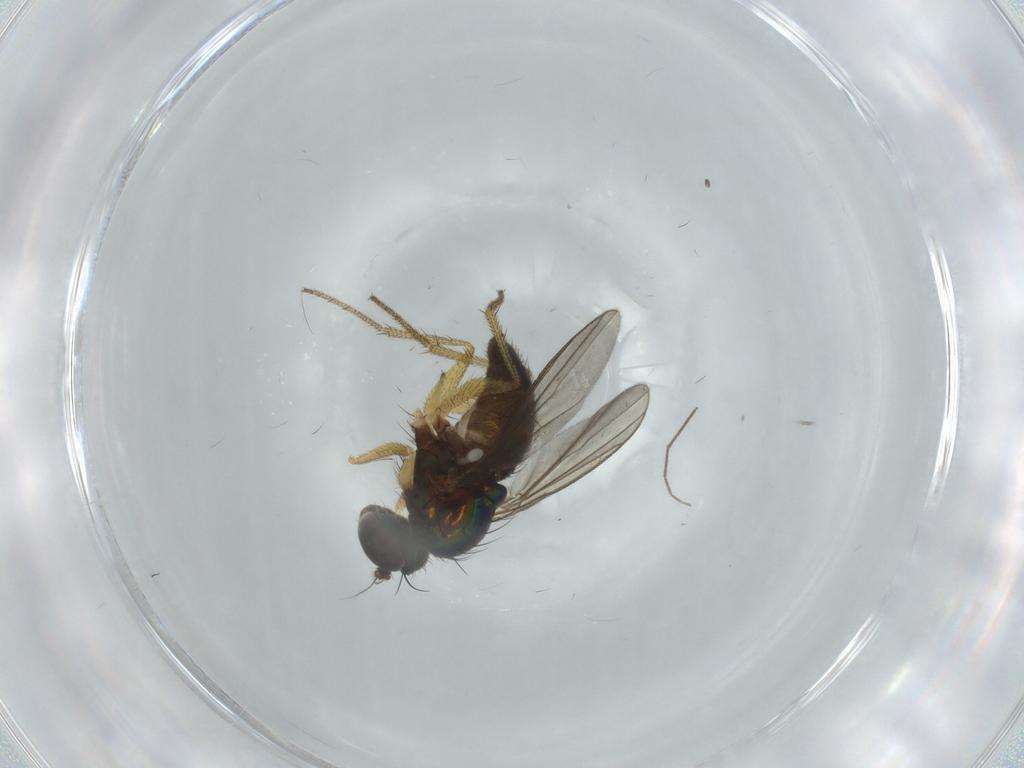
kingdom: Animalia
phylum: Arthropoda
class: Insecta
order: Diptera
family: Dolichopodidae
